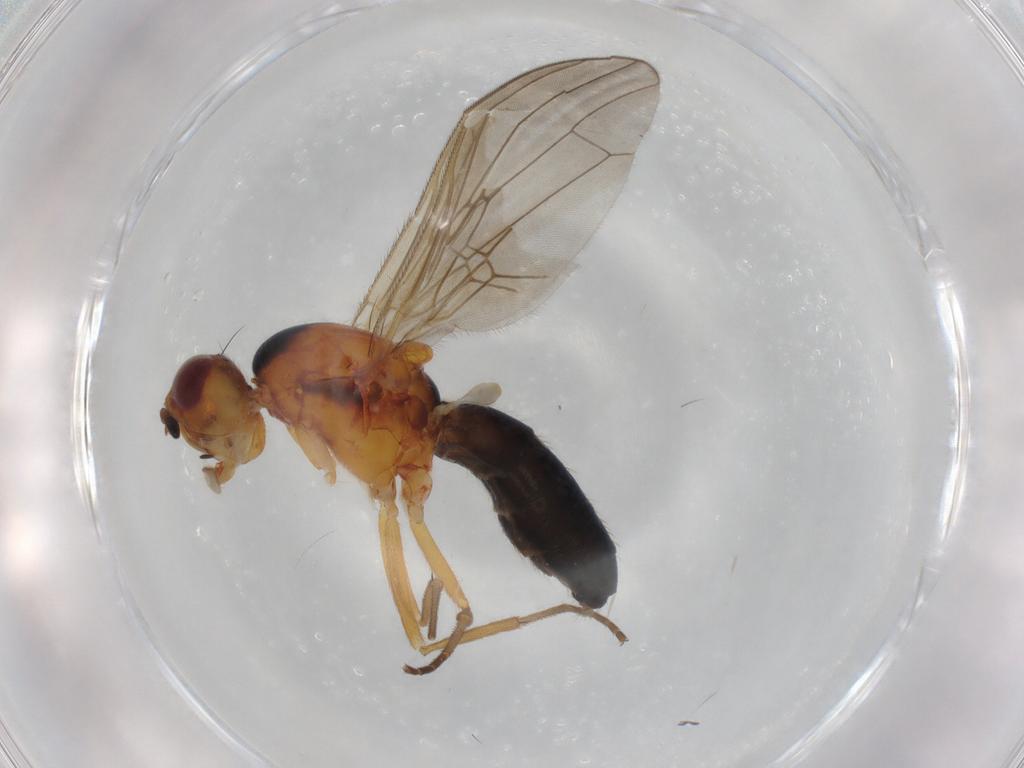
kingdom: Animalia
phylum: Arthropoda
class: Insecta
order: Diptera
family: Psilidae
